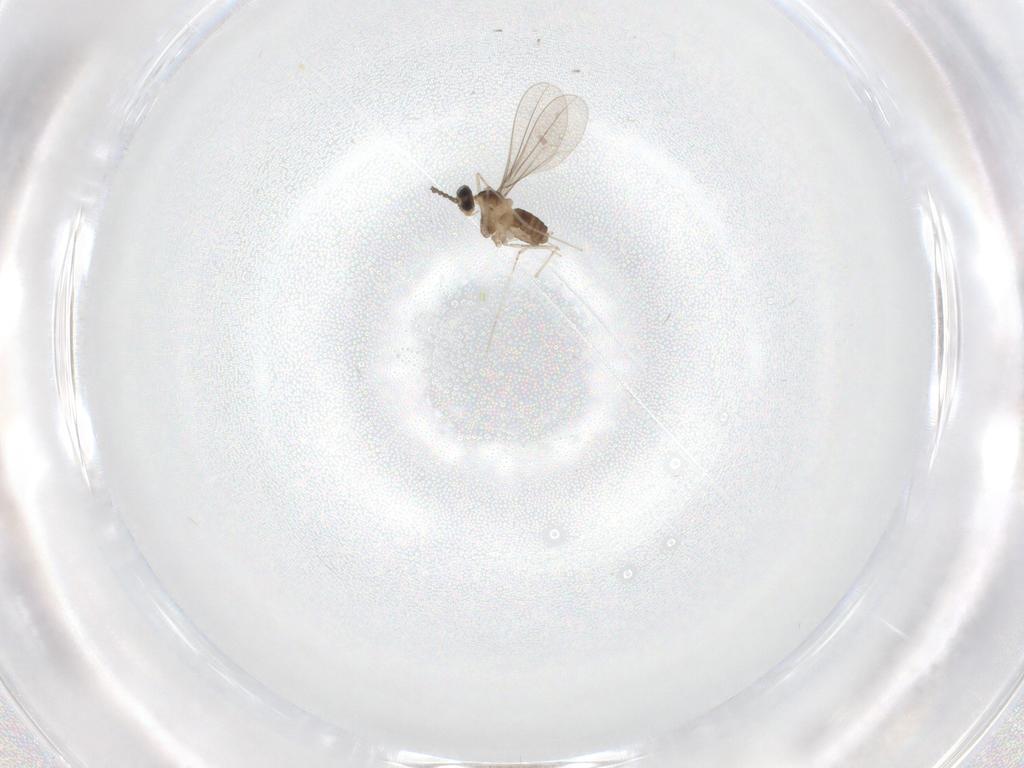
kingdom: Animalia
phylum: Arthropoda
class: Insecta
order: Diptera
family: Cecidomyiidae
